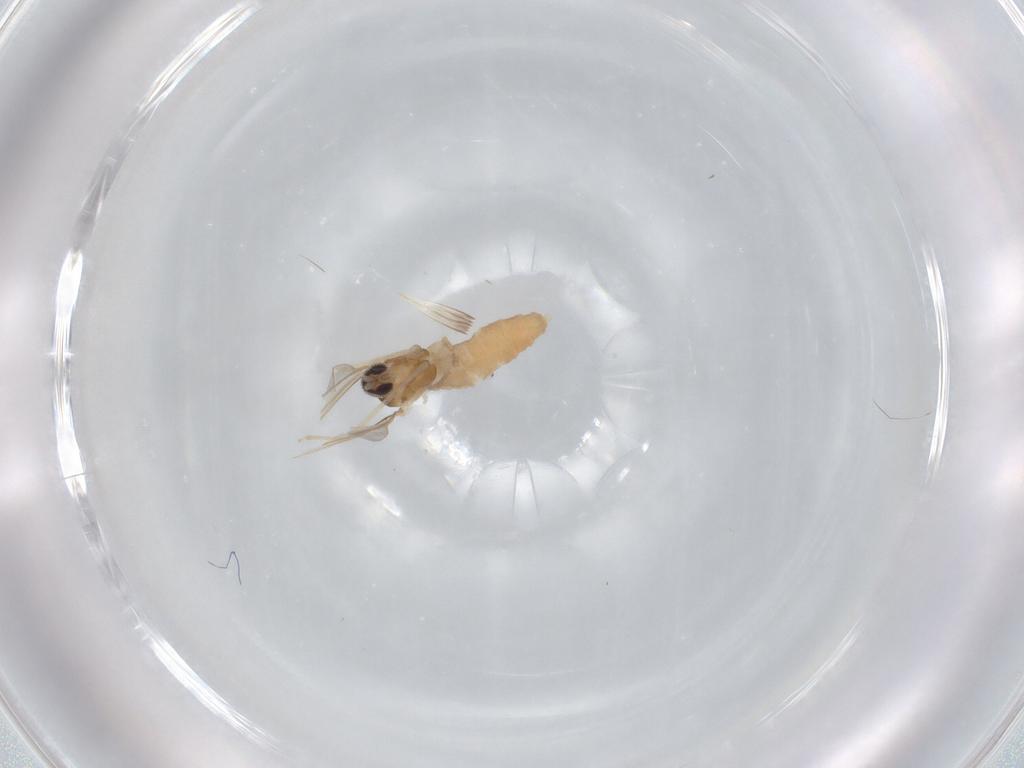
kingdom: Animalia
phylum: Arthropoda
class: Insecta
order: Diptera
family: Cecidomyiidae
